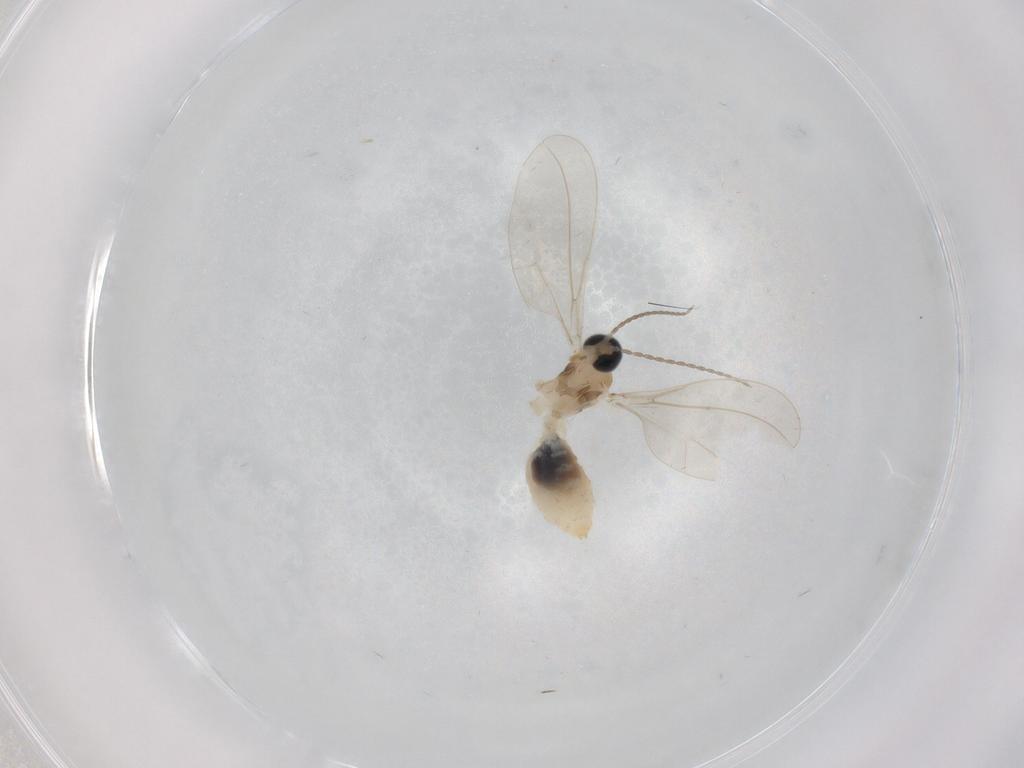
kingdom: Animalia
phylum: Arthropoda
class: Insecta
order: Diptera
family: Cecidomyiidae
